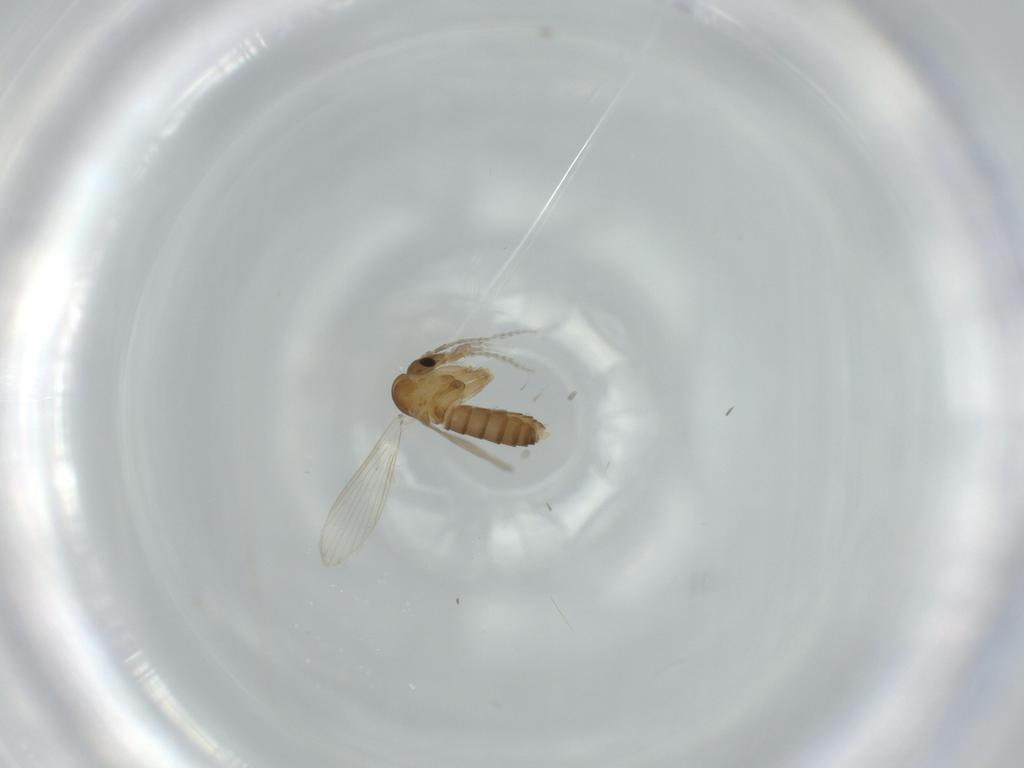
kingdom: Animalia
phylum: Arthropoda
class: Insecta
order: Diptera
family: Psychodidae
